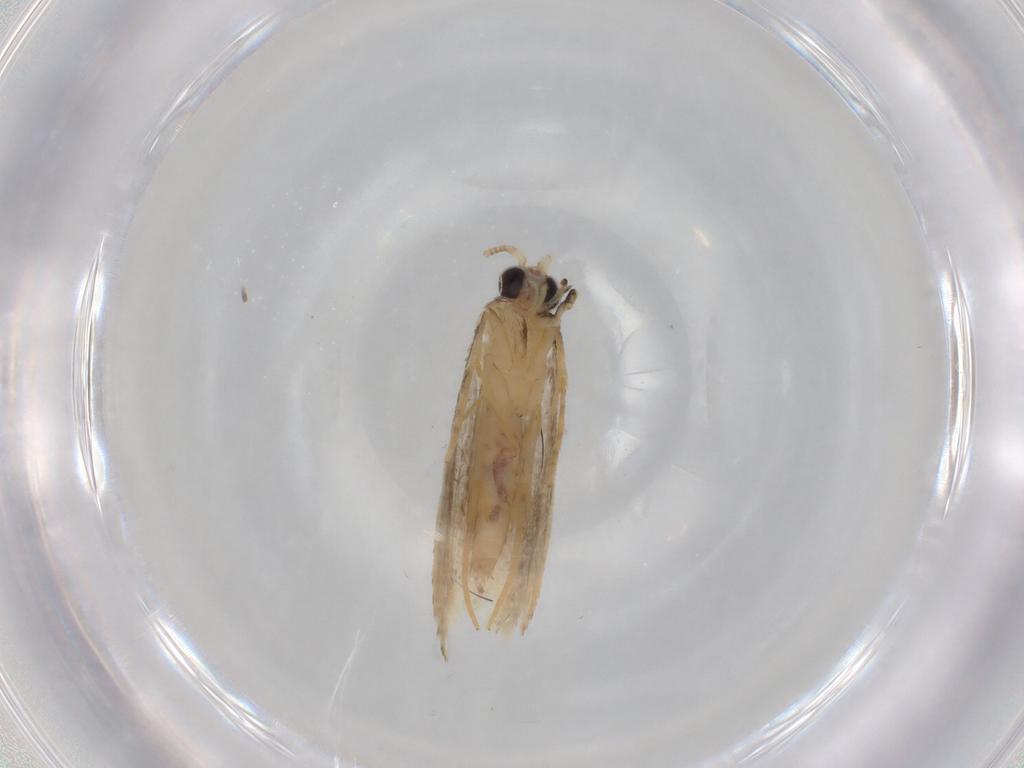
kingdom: Animalia
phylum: Arthropoda
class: Insecta
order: Lepidoptera
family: Nepticulidae
